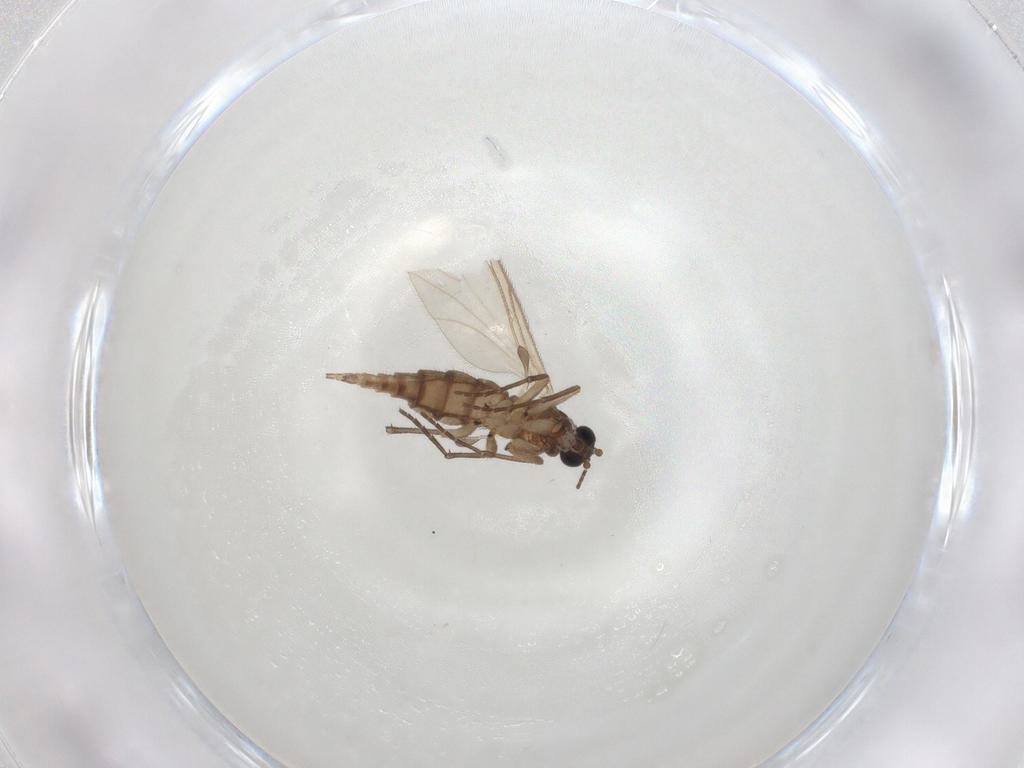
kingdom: Animalia
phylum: Arthropoda
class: Insecta
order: Diptera
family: Sciaridae
